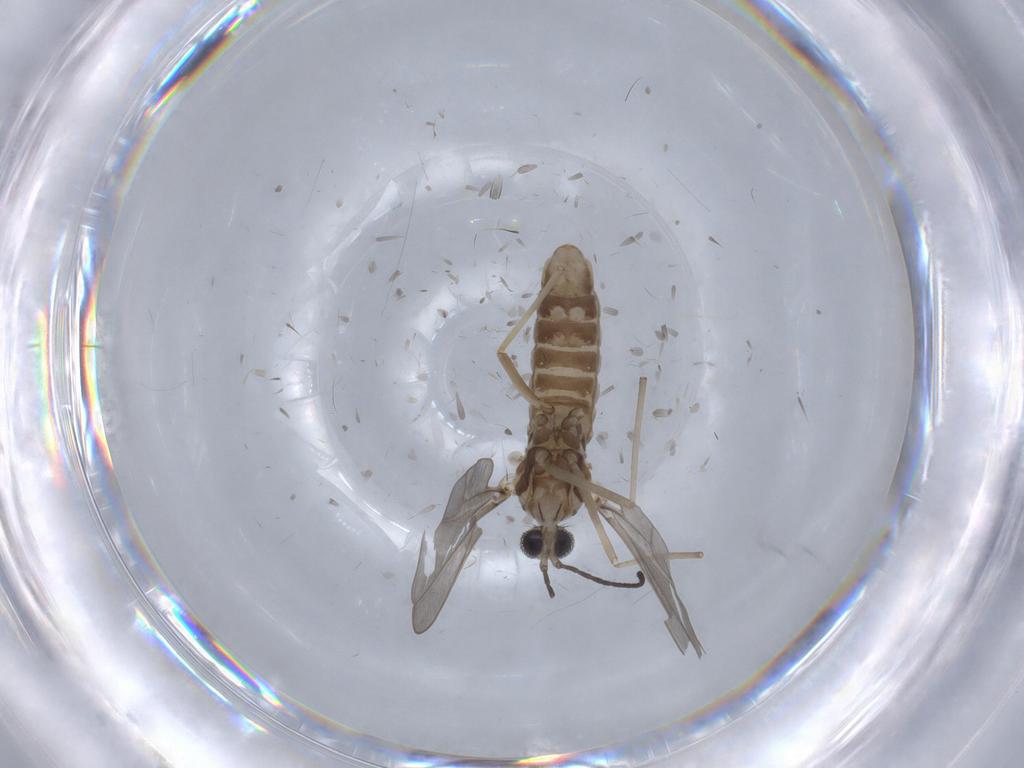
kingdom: Animalia
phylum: Arthropoda
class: Insecta
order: Diptera
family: Cecidomyiidae
